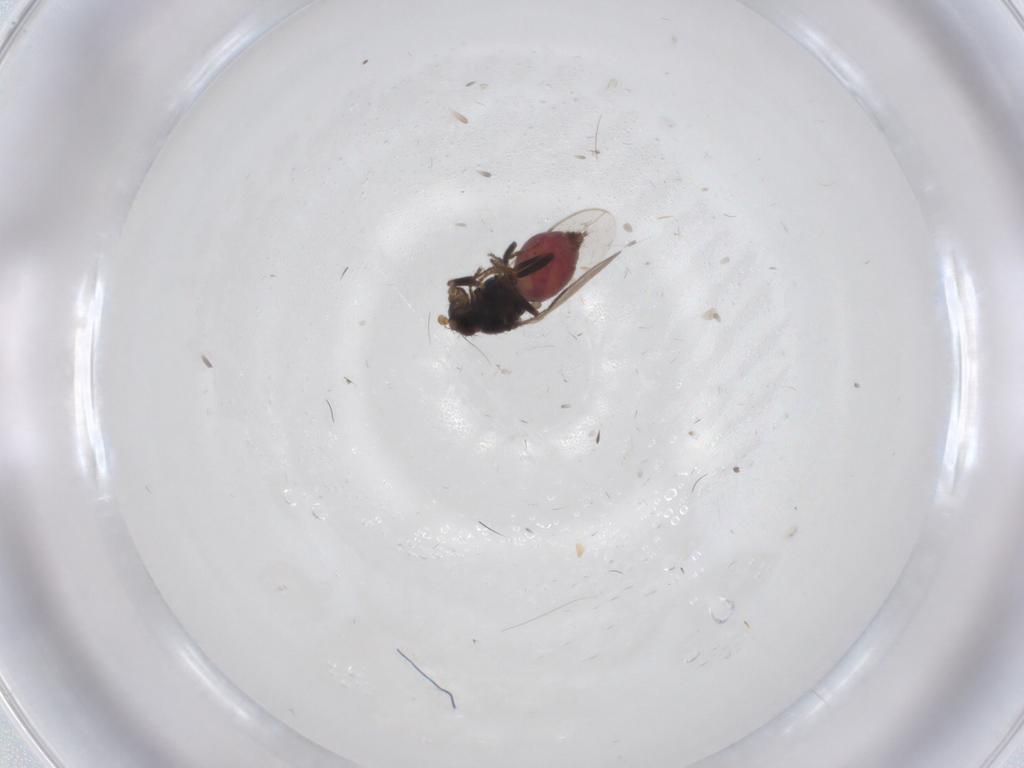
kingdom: Animalia
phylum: Arthropoda
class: Insecta
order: Diptera
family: Sphaeroceridae
